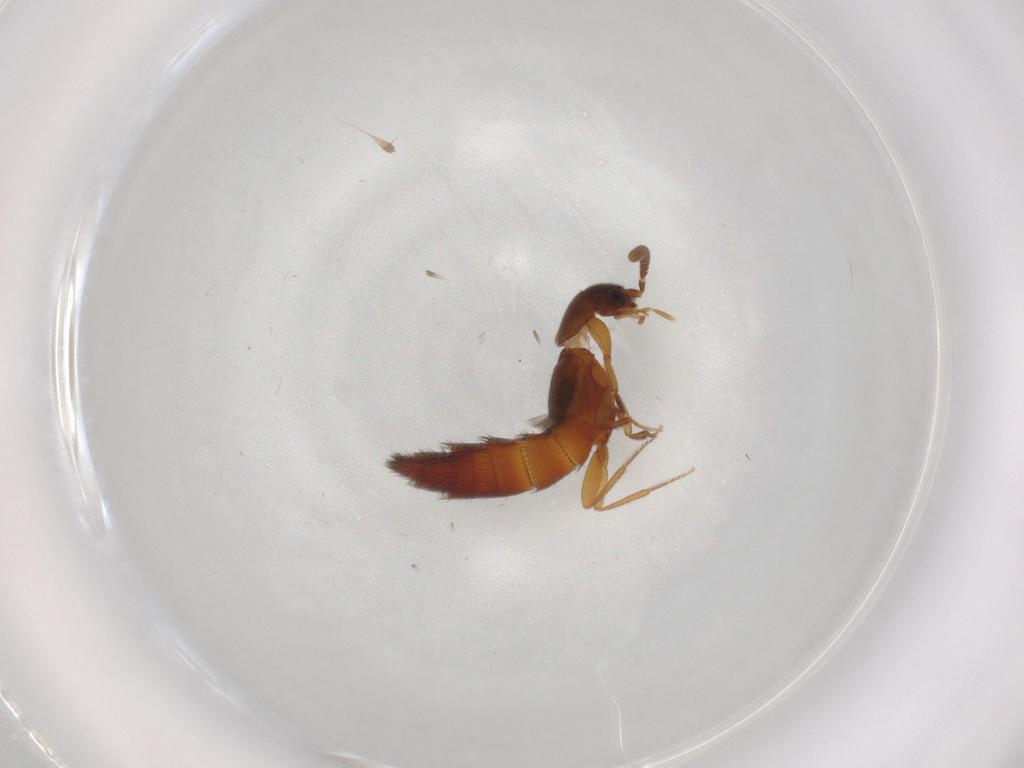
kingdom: Animalia
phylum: Arthropoda
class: Insecta
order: Coleoptera
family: Staphylinidae
